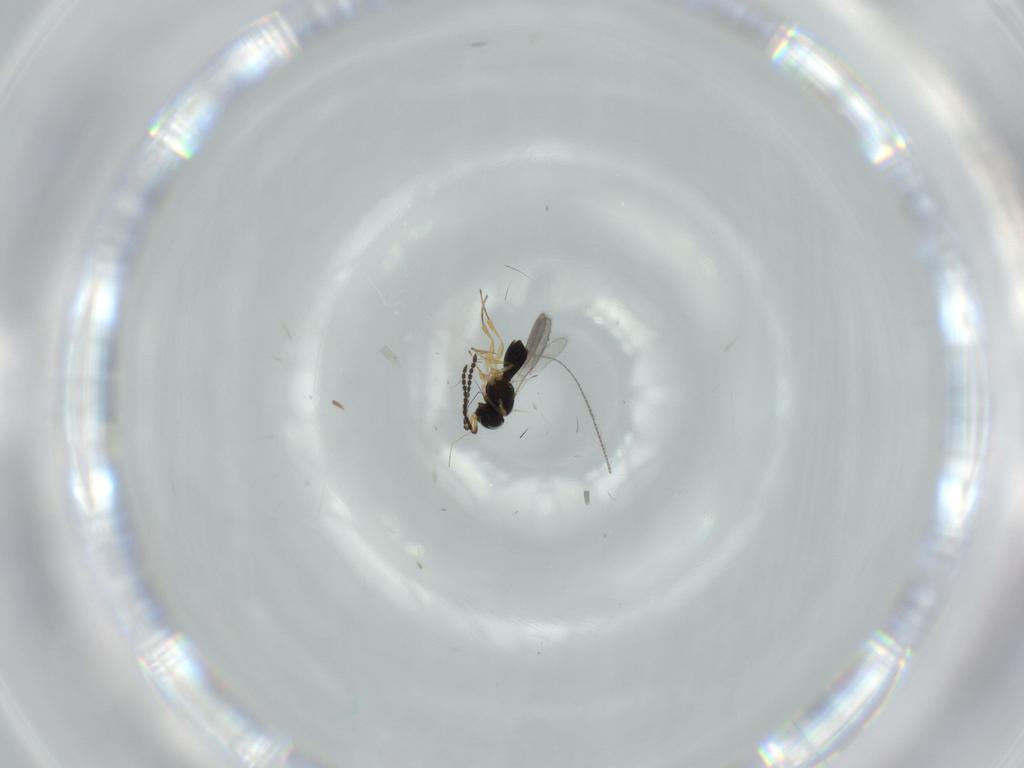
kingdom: Animalia
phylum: Arthropoda
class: Insecta
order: Hymenoptera
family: Scelionidae
